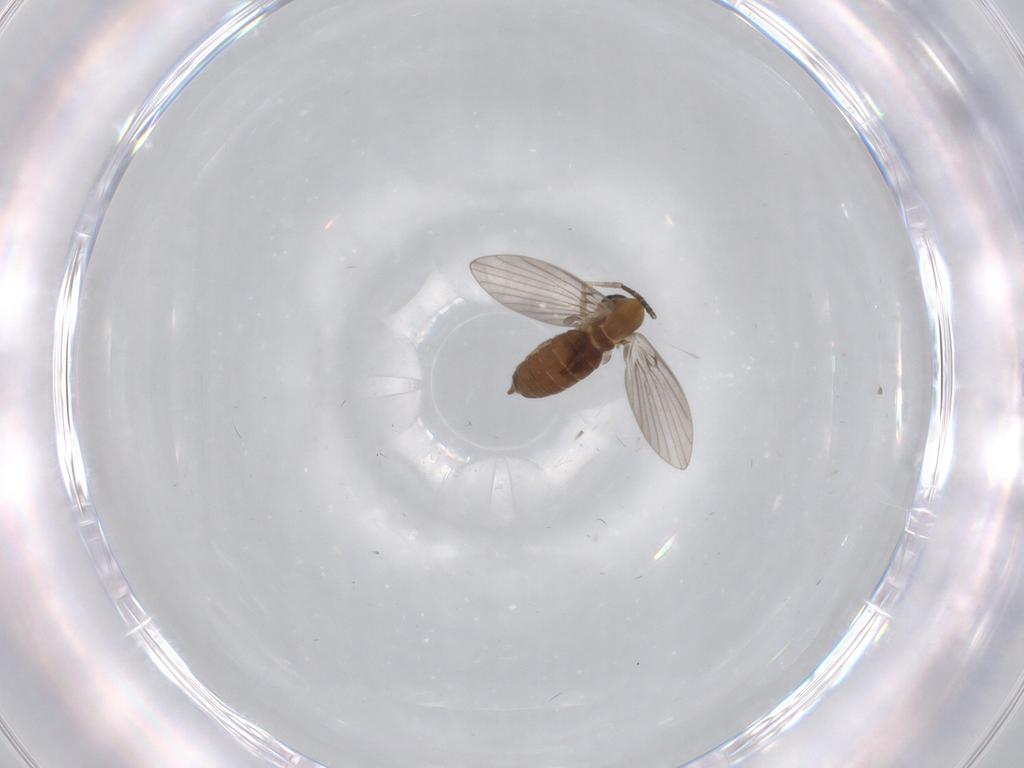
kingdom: Animalia
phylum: Arthropoda
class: Insecta
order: Diptera
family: Psychodidae
